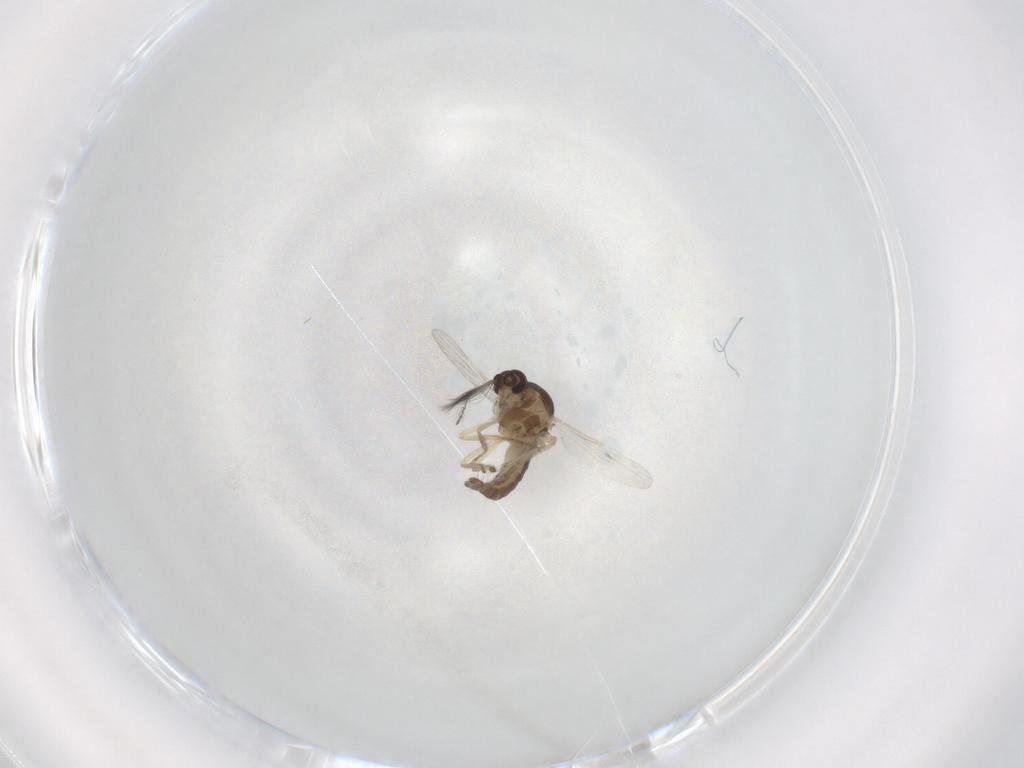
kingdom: Animalia
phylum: Arthropoda
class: Insecta
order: Diptera
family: Ceratopogonidae
